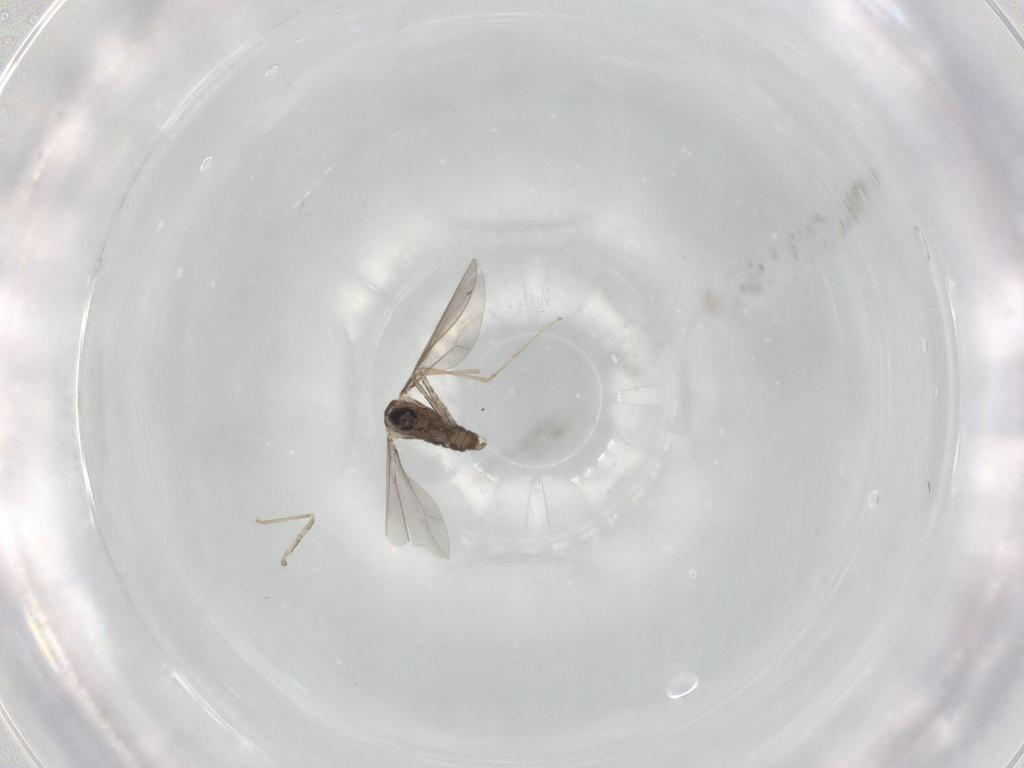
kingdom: Animalia
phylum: Arthropoda
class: Insecta
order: Diptera
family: Cecidomyiidae
